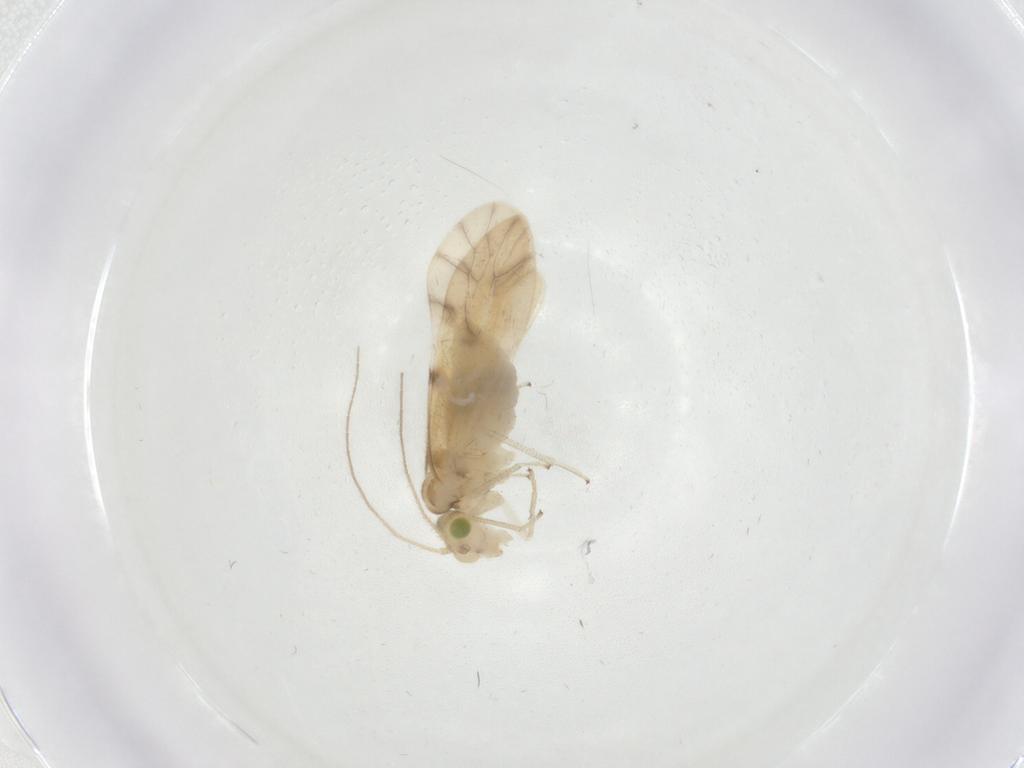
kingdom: Animalia
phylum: Arthropoda
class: Insecta
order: Psocodea
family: Caeciliusidae
